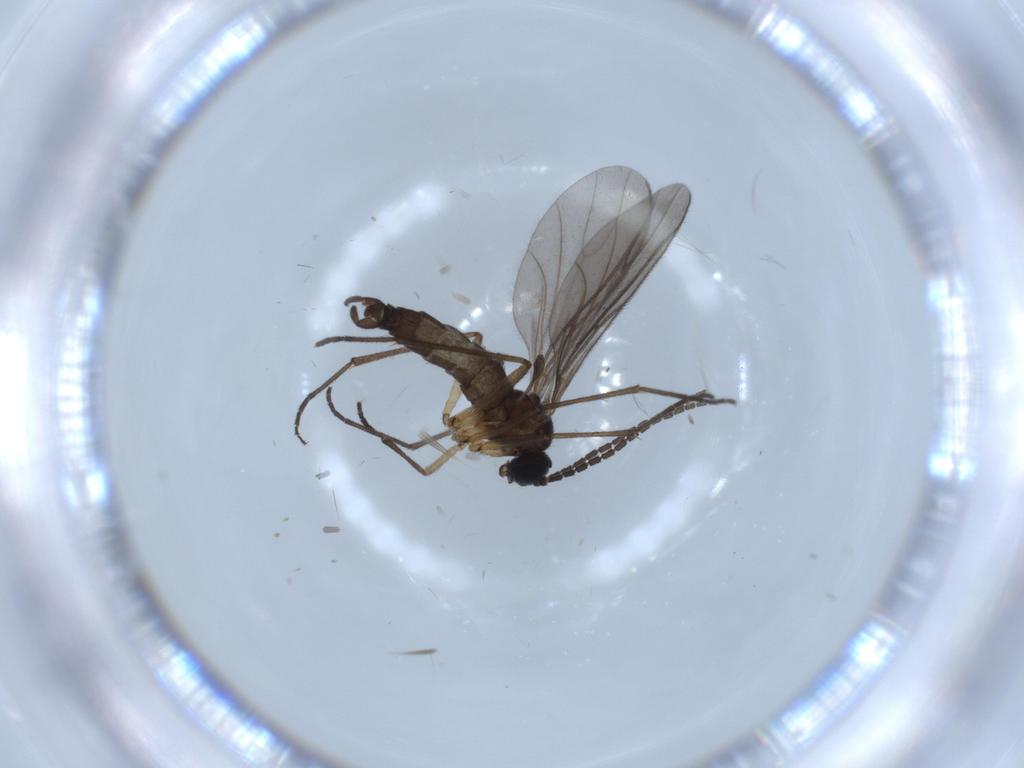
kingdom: Animalia
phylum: Arthropoda
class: Insecta
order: Diptera
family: Sciaridae
